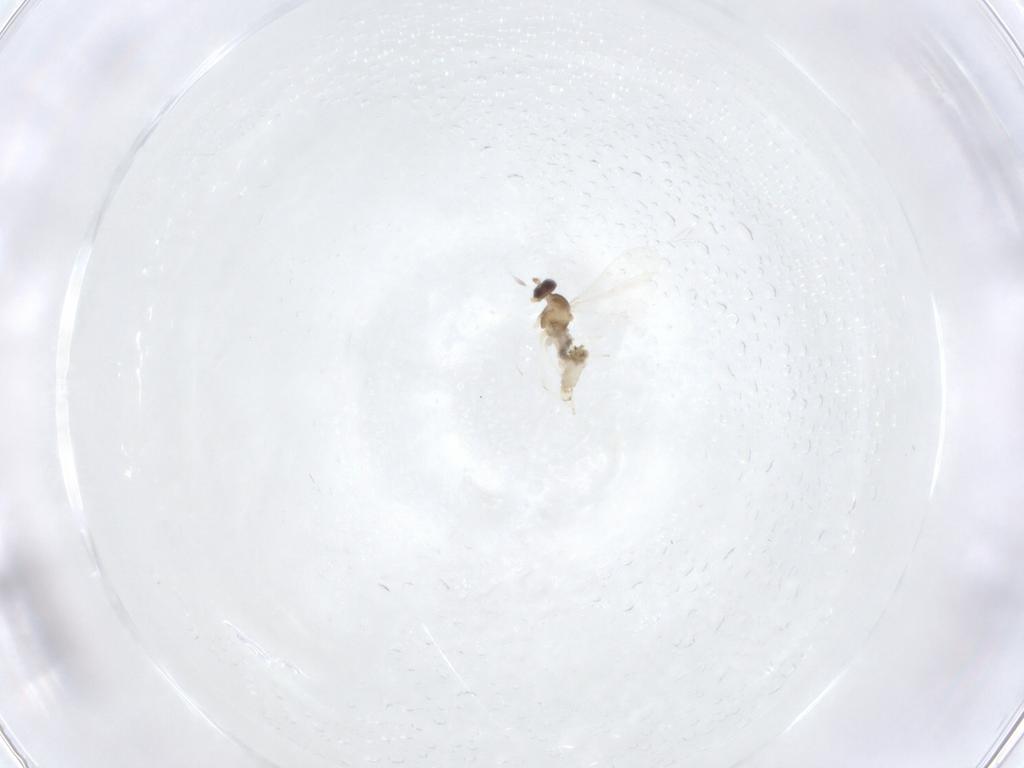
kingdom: Animalia
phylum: Arthropoda
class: Insecta
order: Diptera
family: Cecidomyiidae
